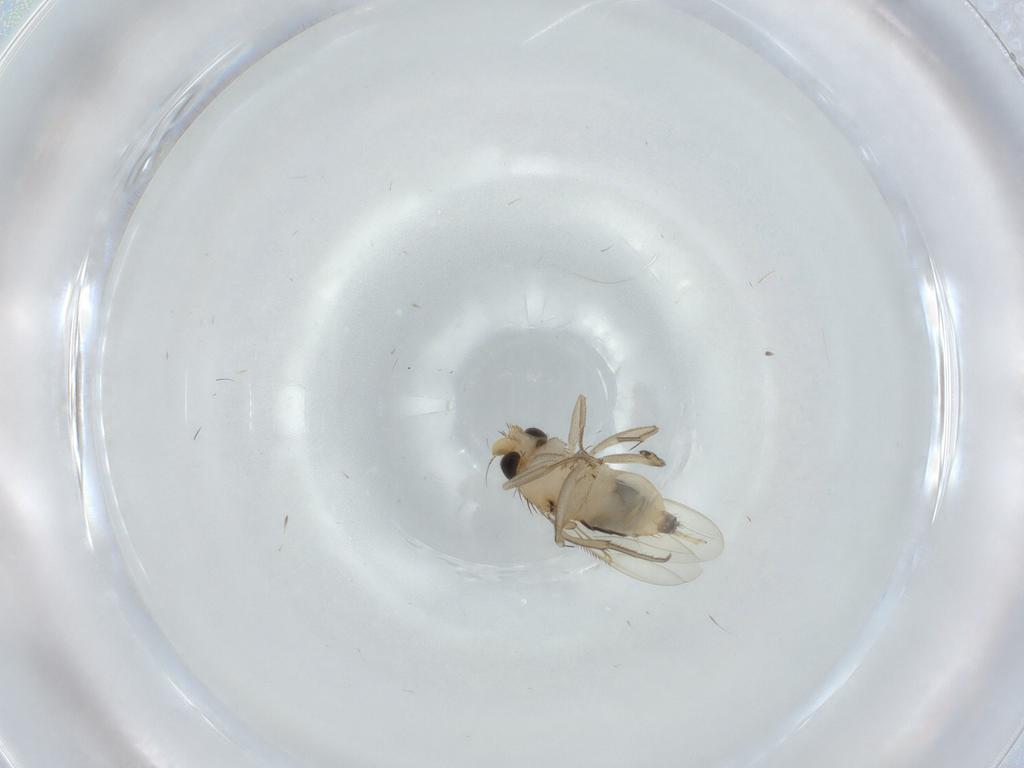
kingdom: Animalia
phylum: Arthropoda
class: Insecta
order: Diptera
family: Phoridae
